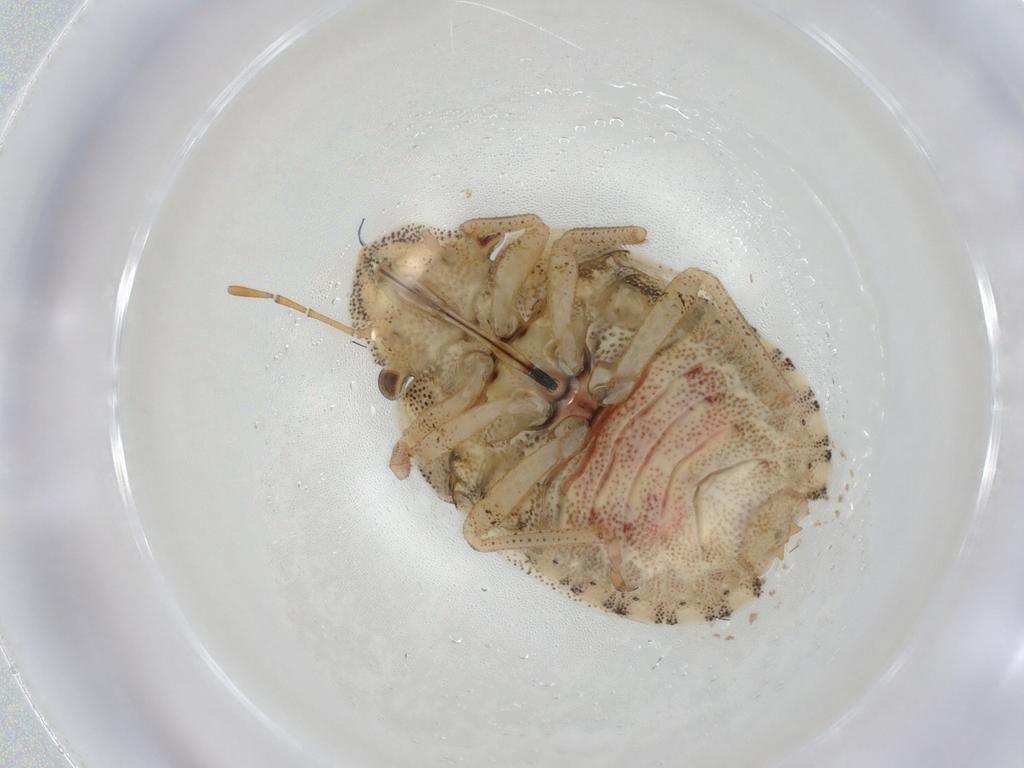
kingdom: Animalia
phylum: Arthropoda
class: Insecta
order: Hemiptera
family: Pentatomidae
